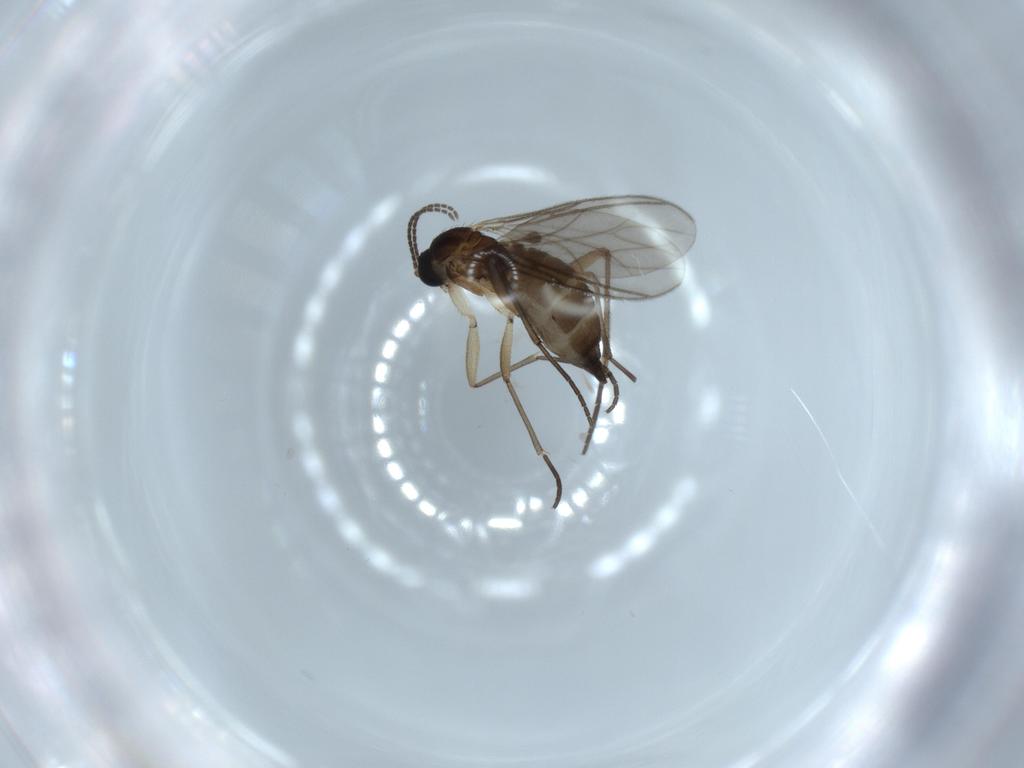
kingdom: Animalia
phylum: Arthropoda
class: Insecta
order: Diptera
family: Sciaridae
